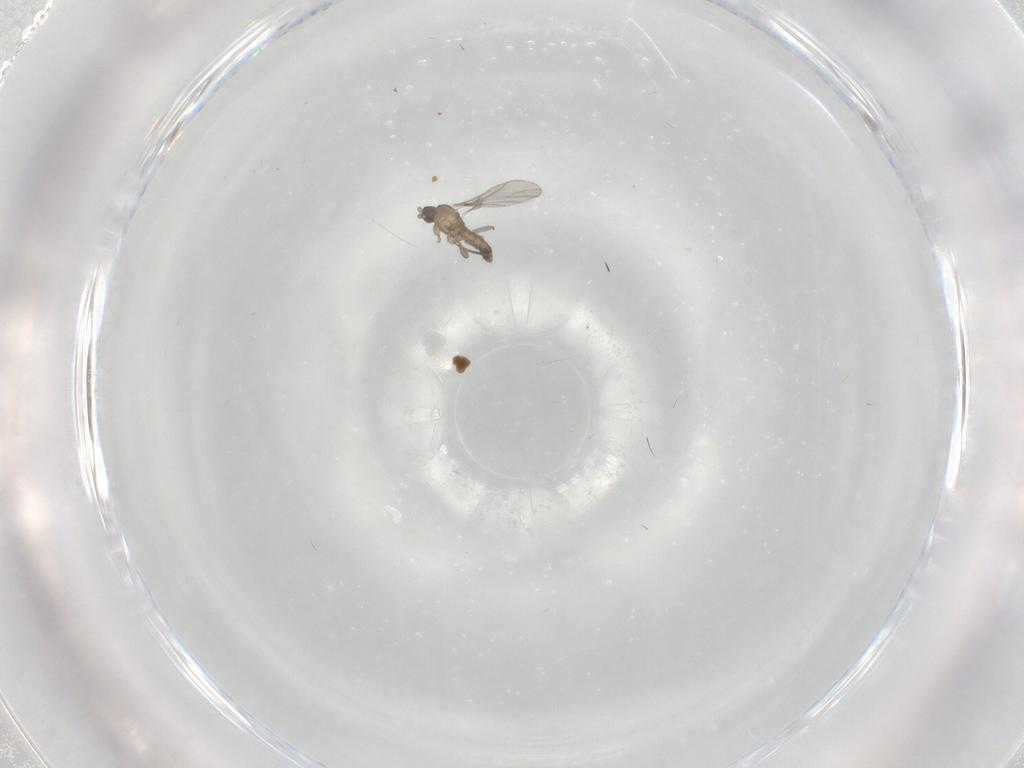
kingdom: Animalia
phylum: Arthropoda
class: Insecta
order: Diptera
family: Sciaridae
